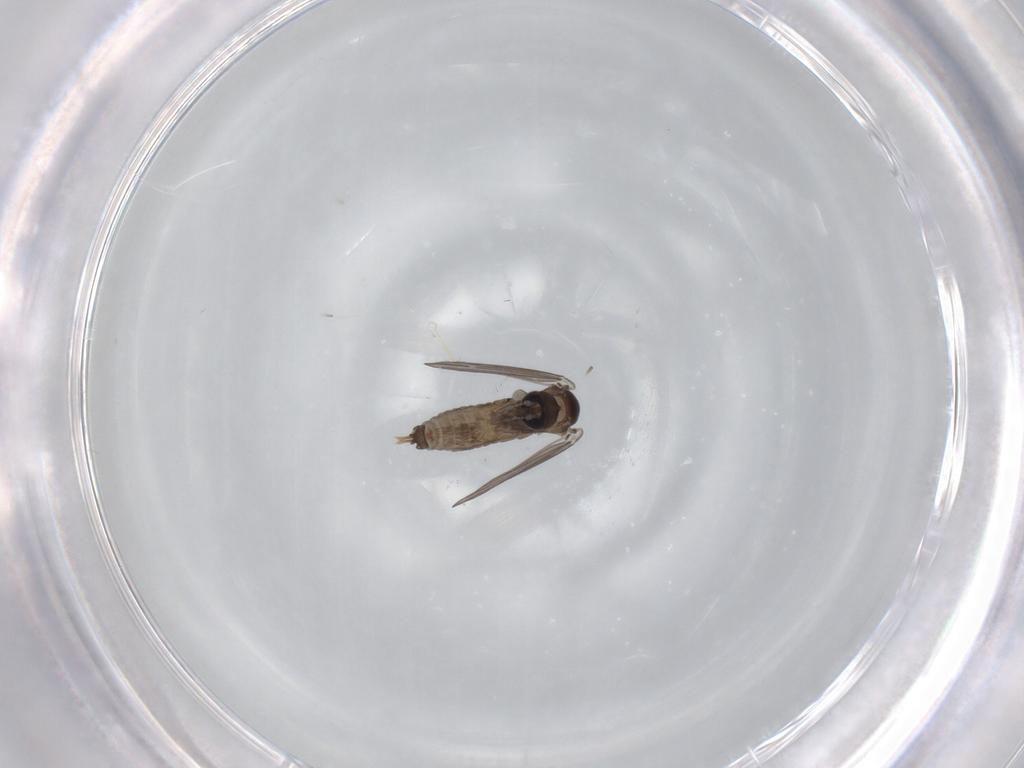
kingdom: Animalia
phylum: Arthropoda
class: Insecta
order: Diptera
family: Psychodidae
